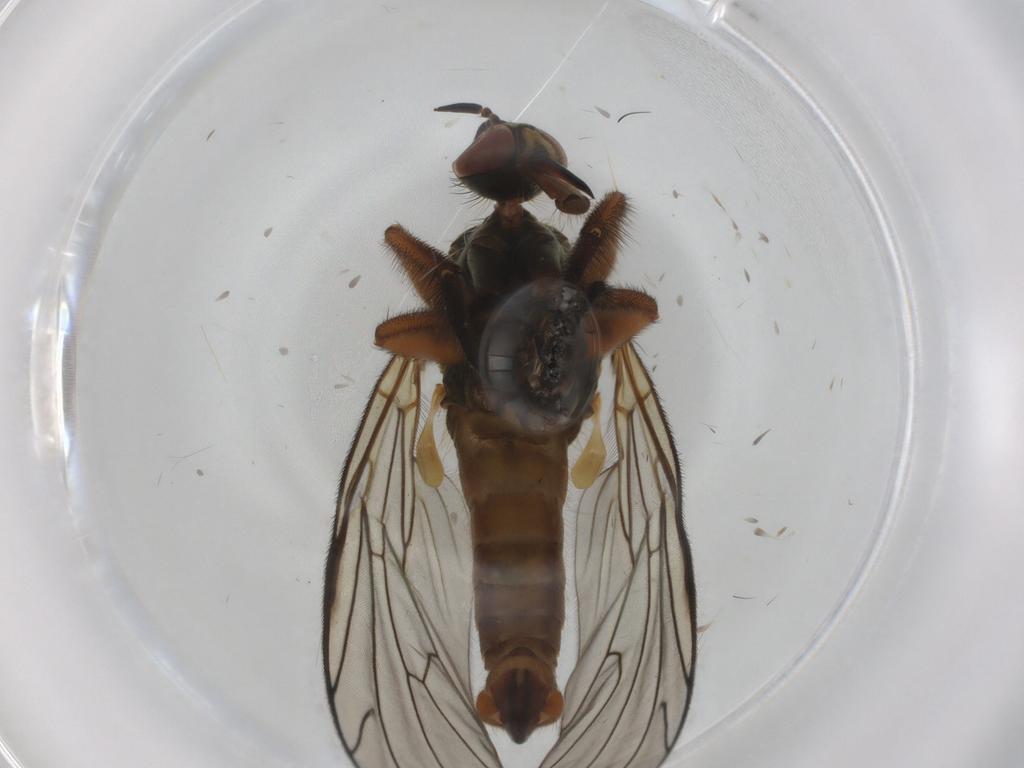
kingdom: Animalia
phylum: Arthropoda
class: Insecta
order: Diptera
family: Empididae
